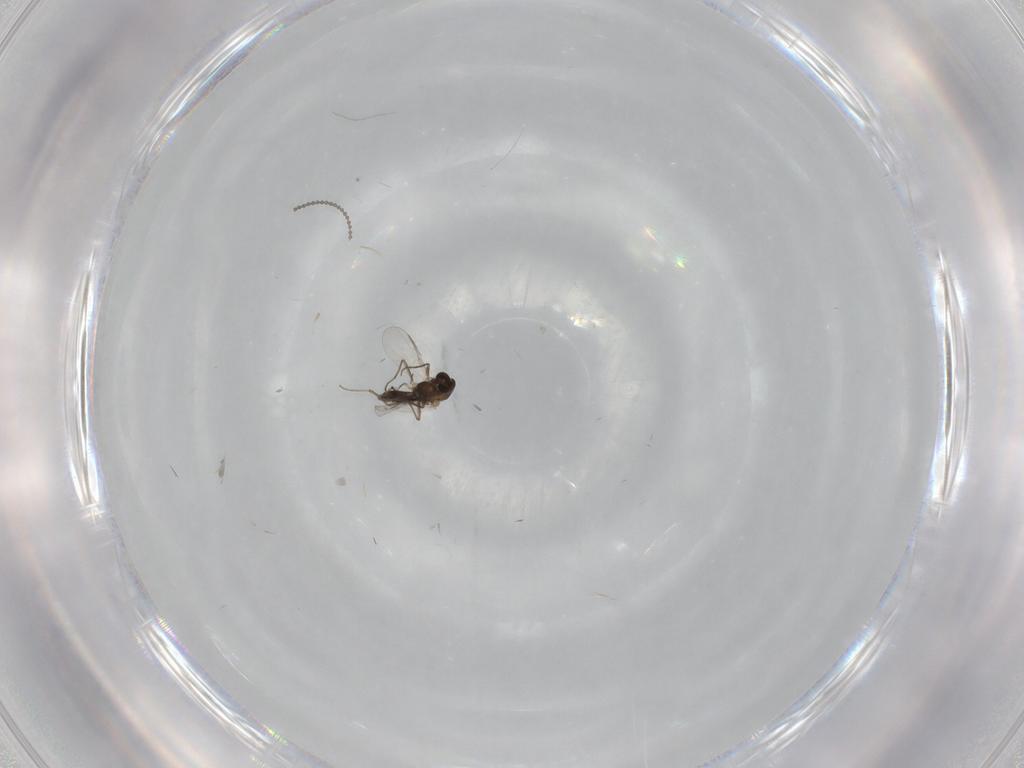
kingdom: Animalia
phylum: Arthropoda
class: Insecta
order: Diptera
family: Chironomidae
